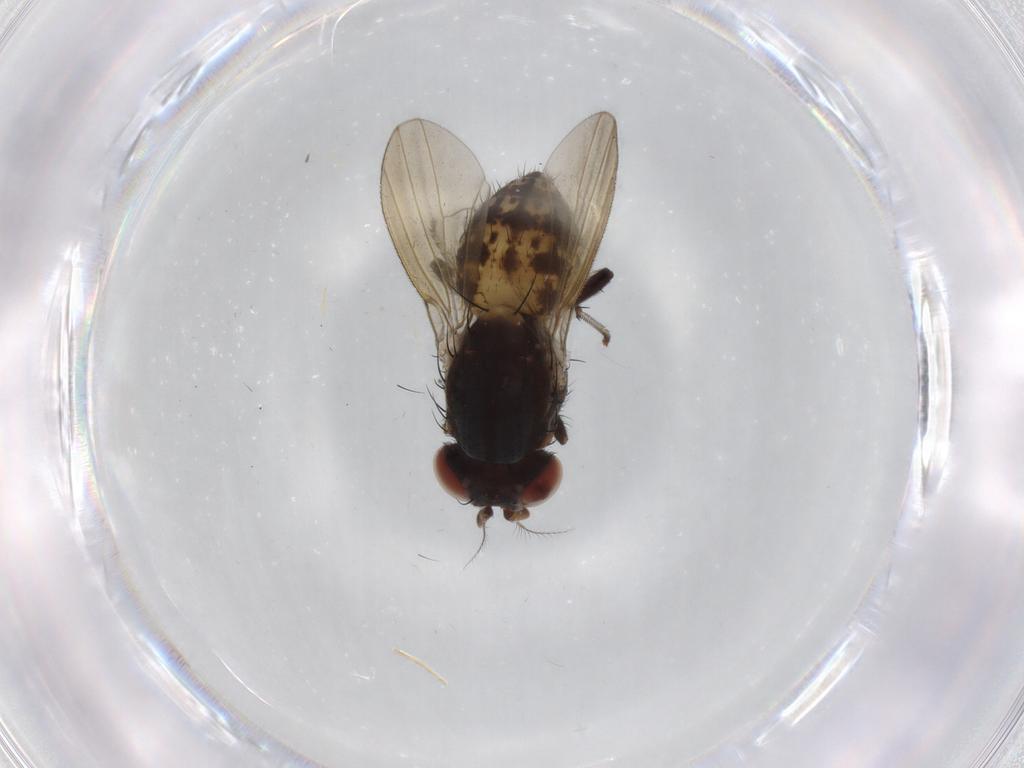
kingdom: Animalia
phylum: Arthropoda
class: Insecta
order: Diptera
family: Lauxaniidae
